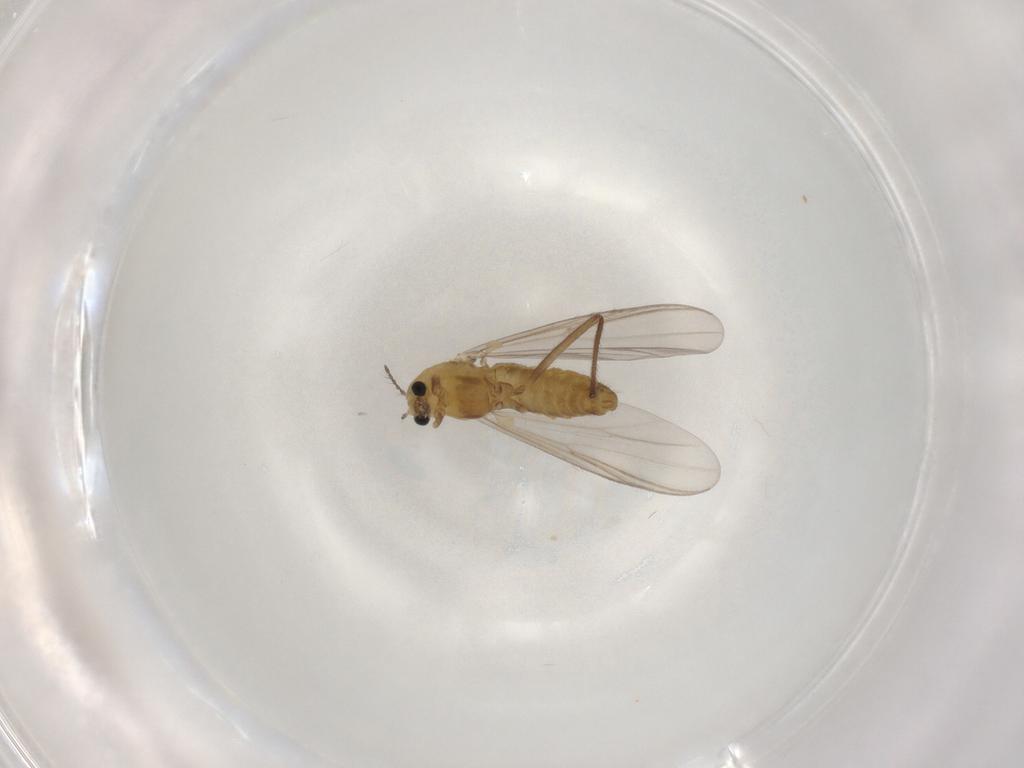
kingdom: Animalia
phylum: Arthropoda
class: Insecta
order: Diptera
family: Chironomidae
